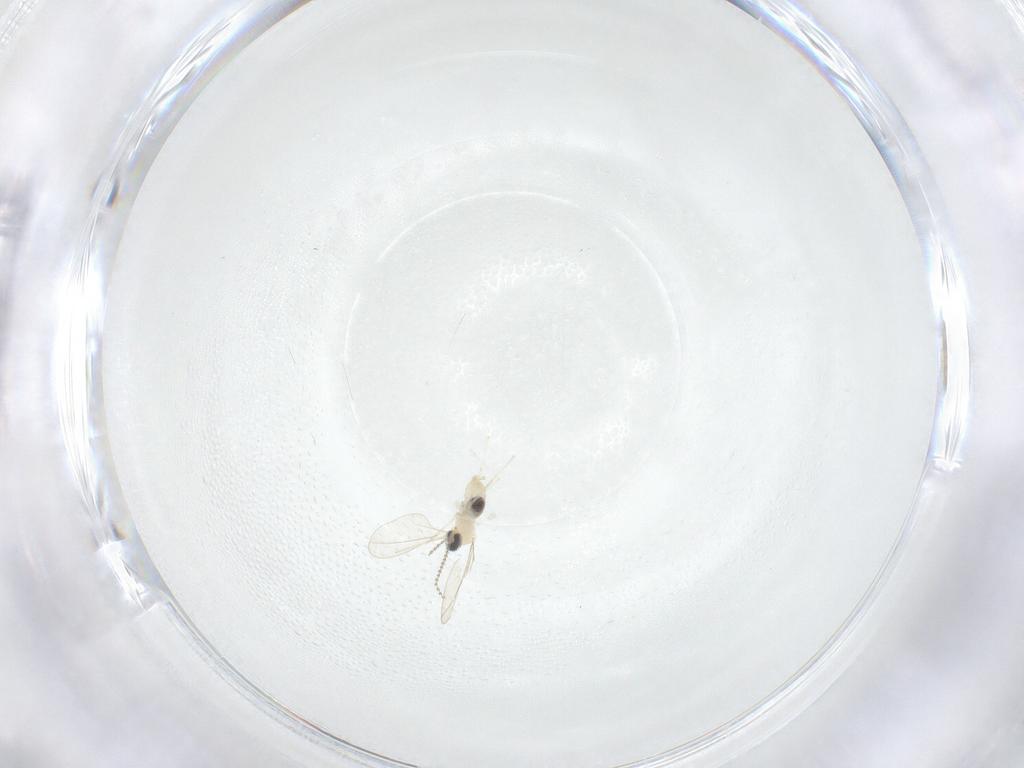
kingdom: Animalia
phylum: Arthropoda
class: Insecta
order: Diptera
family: Cecidomyiidae
